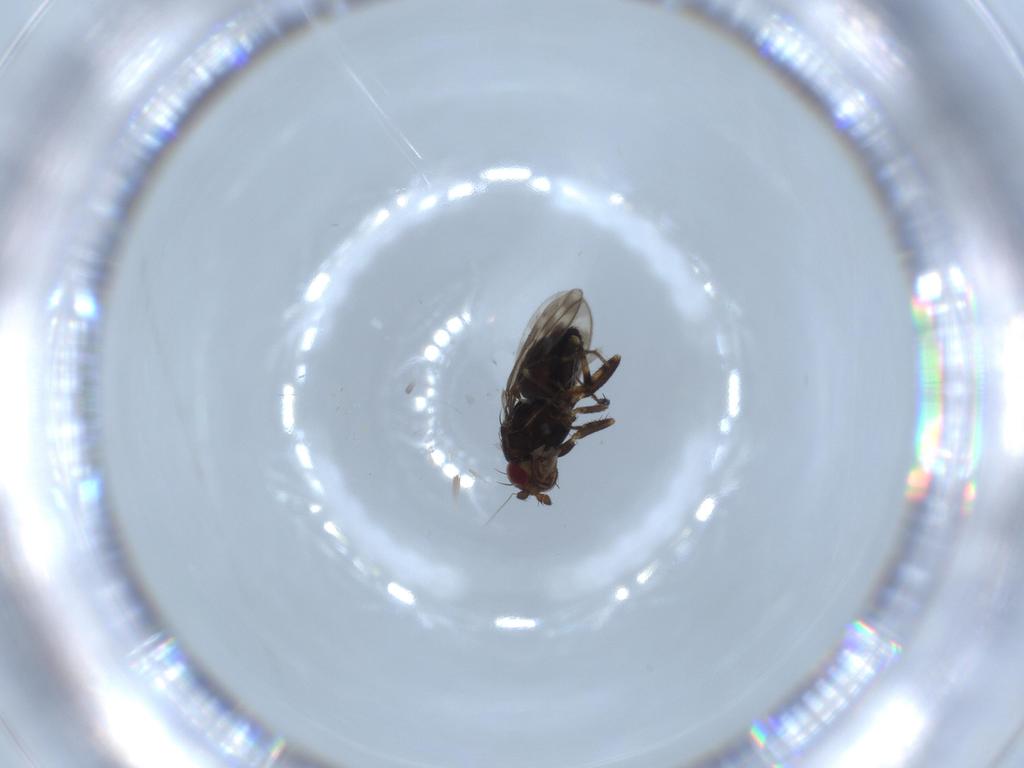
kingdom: Animalia
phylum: Arthropoda
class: Insecta
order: Diptera
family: Sphaeroceridae
